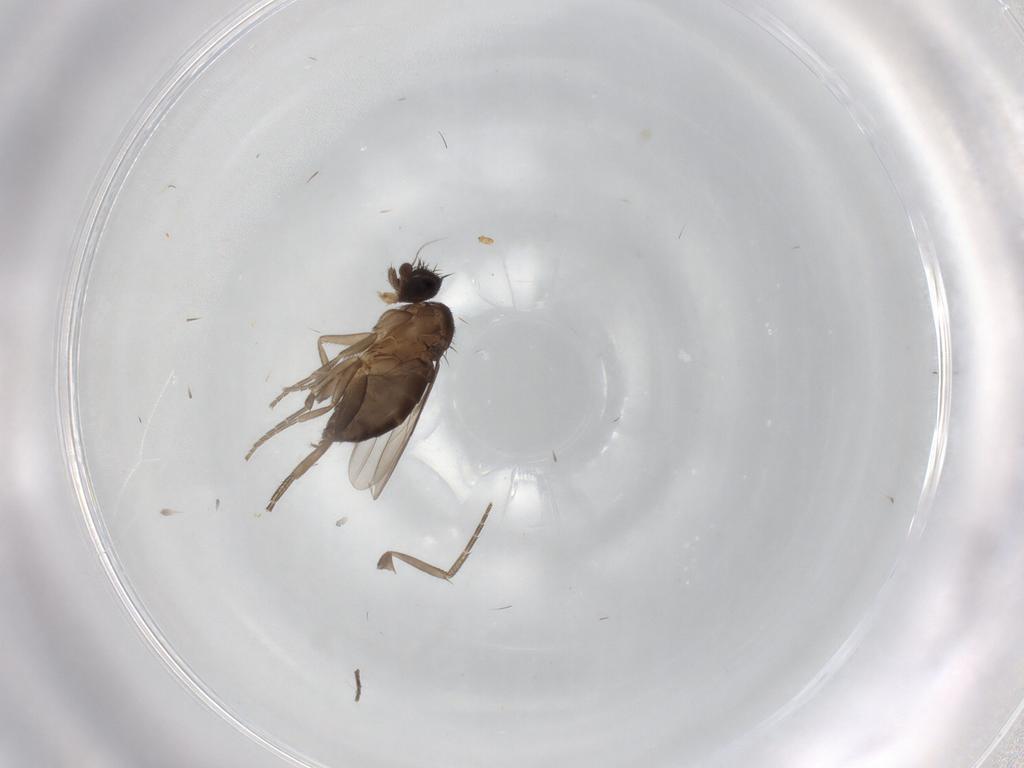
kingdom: Animalia
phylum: Arthropoda
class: Insecta
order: Diptera
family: Phoridae
